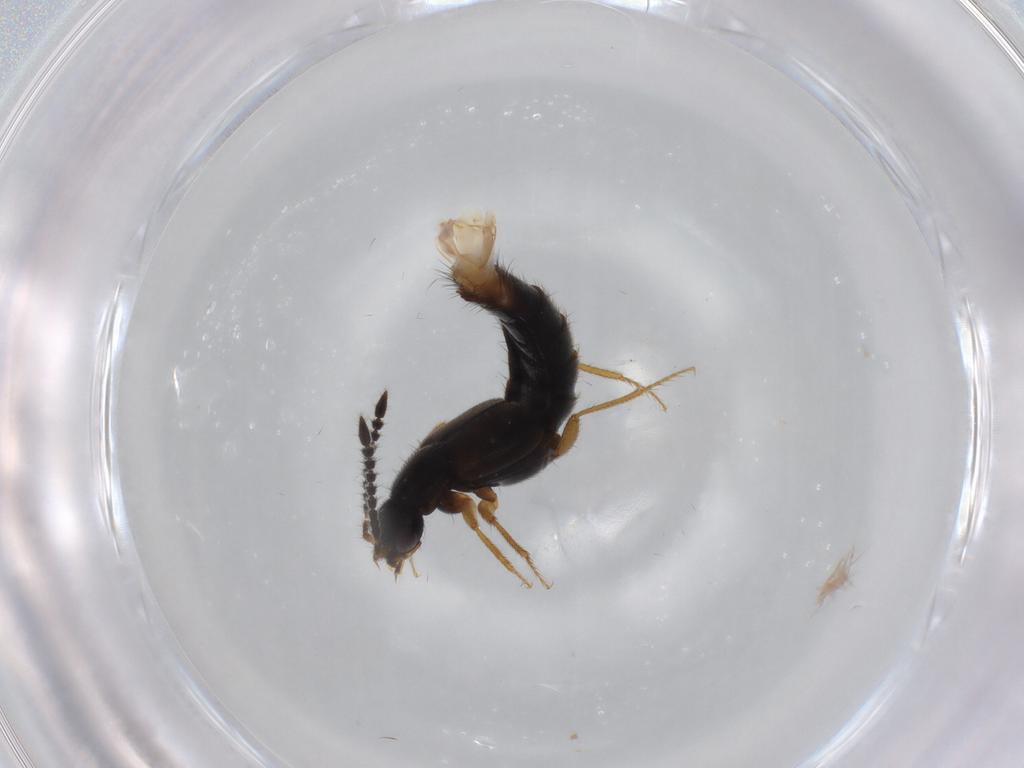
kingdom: Animalia
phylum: Arthropoda
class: Insecta
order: Coleoptera
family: Staphylinidae
